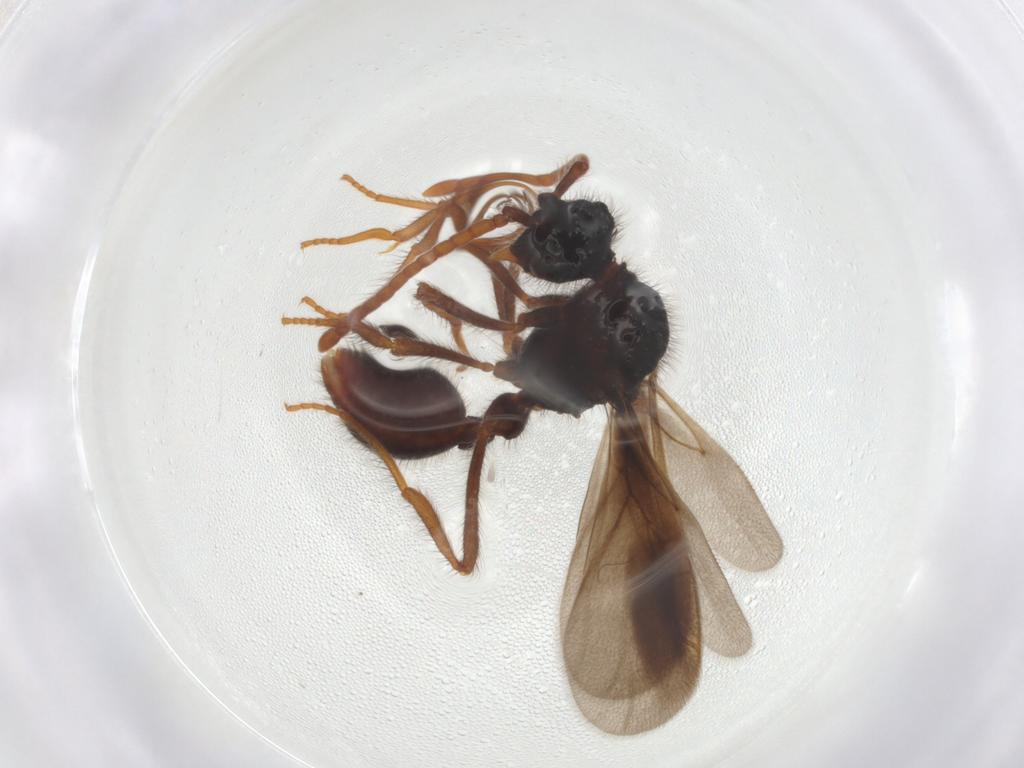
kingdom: Animalia
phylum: Arthropoda
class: Insecta
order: Hymenoptera
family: Formicidae
